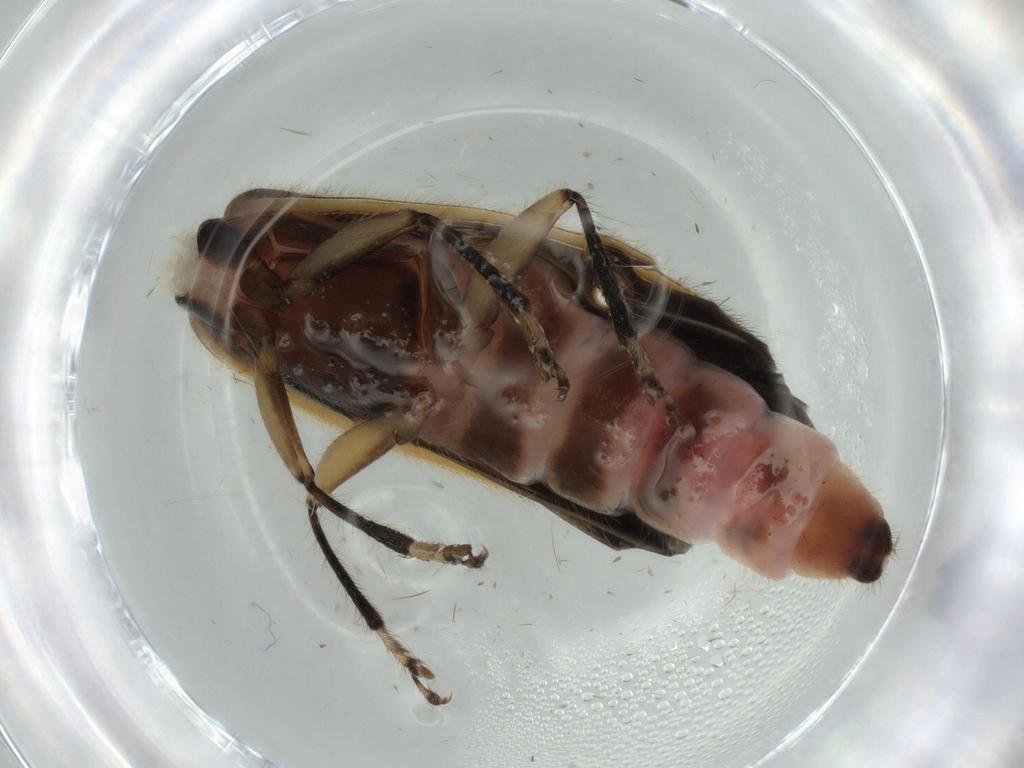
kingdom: Animalia
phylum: Arthropoda
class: Insecta
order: Coleoptera
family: Cleridae
